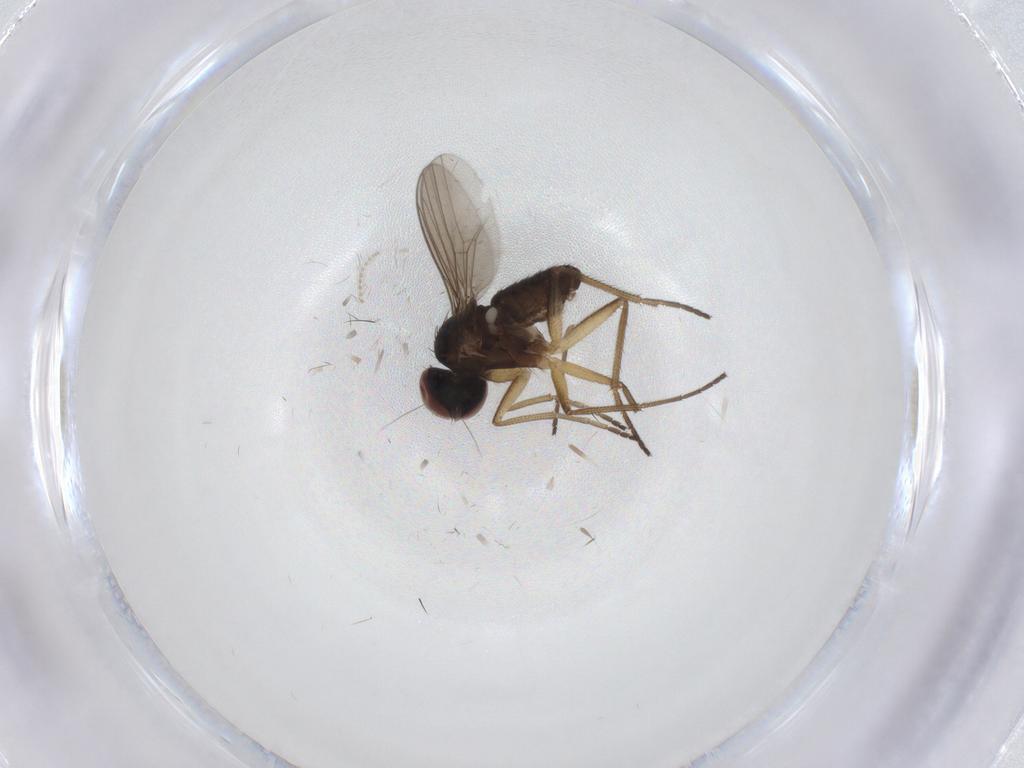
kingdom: Animalia
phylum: Arthropoda
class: Insecta
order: Diptera
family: Dolichopodidae
